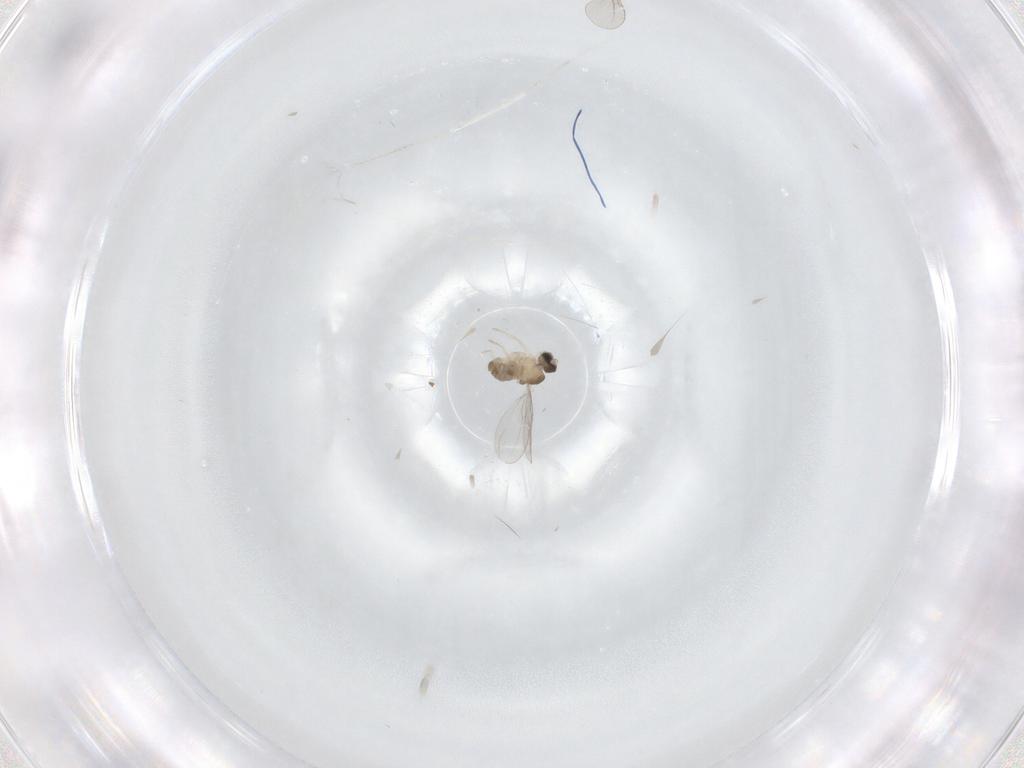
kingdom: Animalia
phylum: Arthropoda
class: Insecta
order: Diptera
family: Cecidomyiidae
